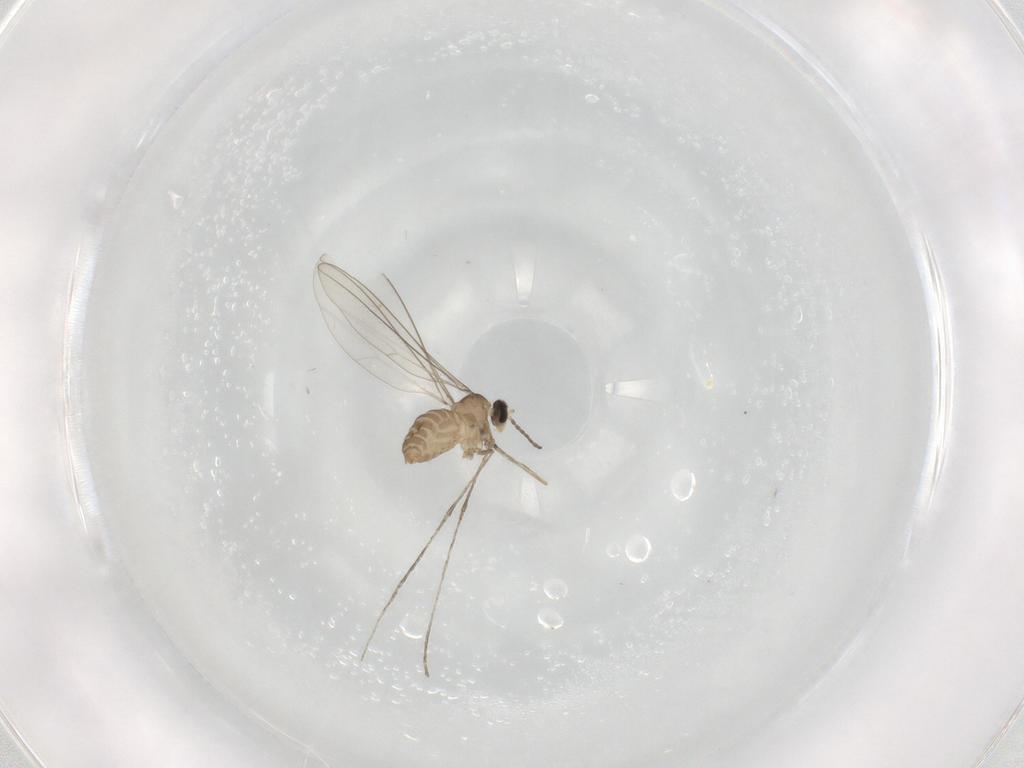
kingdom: Animalia
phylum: Arthropoda
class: Insecta
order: Diptera
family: Cecidomyiidae
